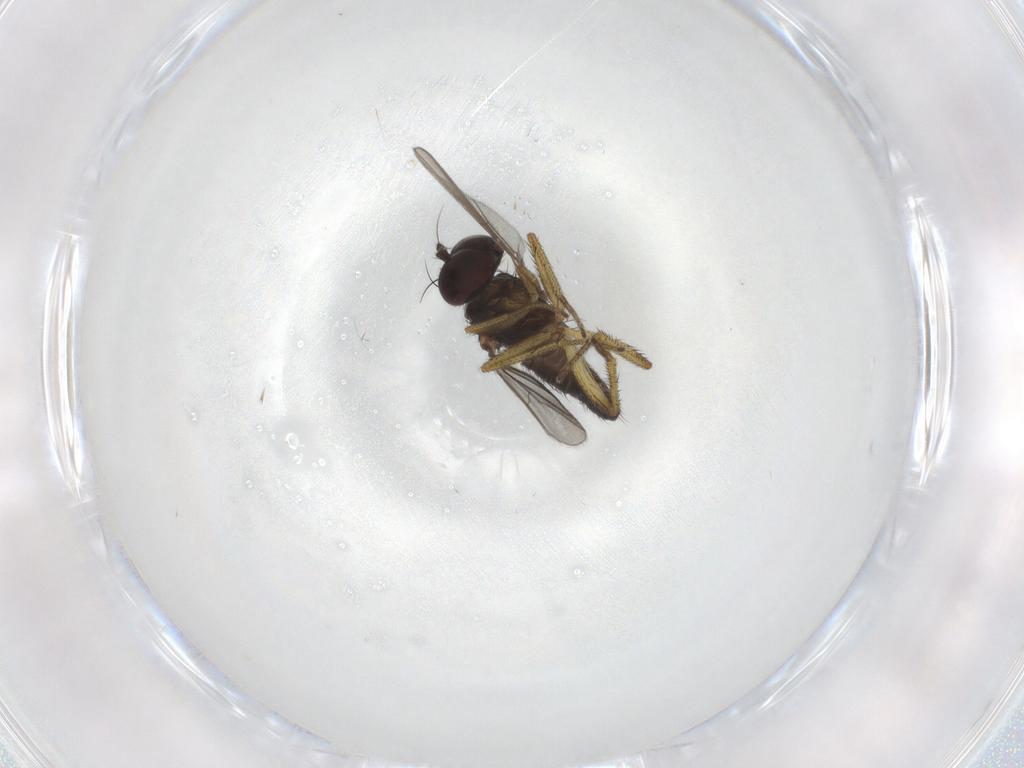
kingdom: Animalia
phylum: Arthropoda
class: Insecta
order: Diptera
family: Dolichopodidae
